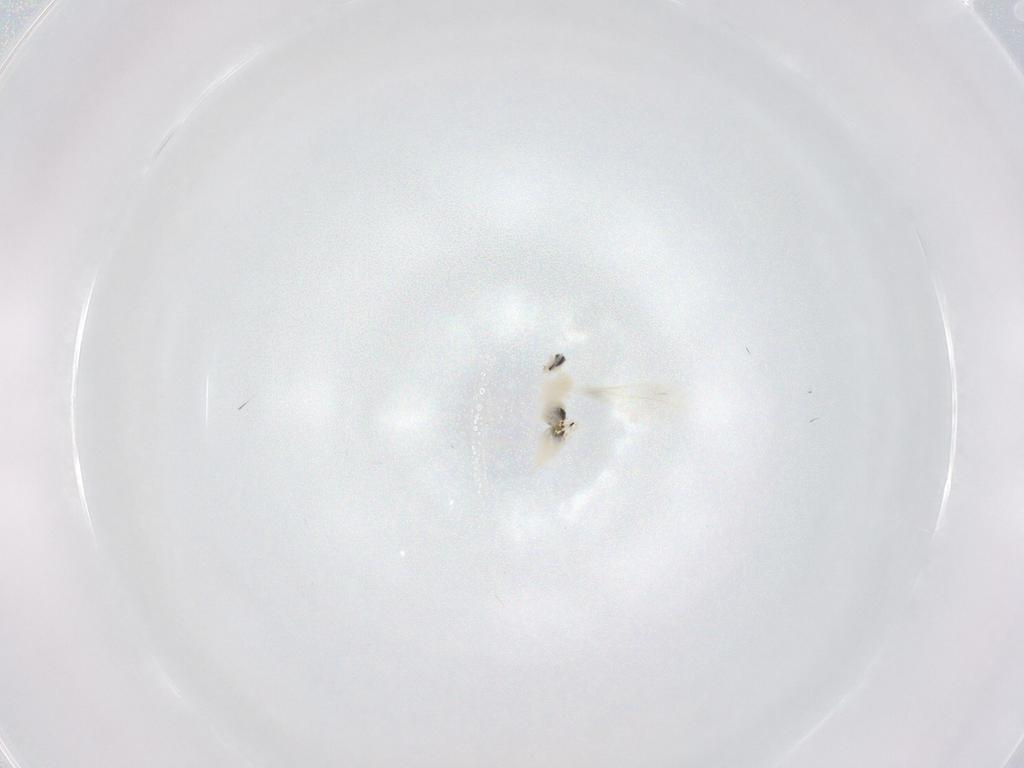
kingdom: Animalia
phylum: Arthropoda
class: Insecta
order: Diptera
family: Cecidomyiidae
